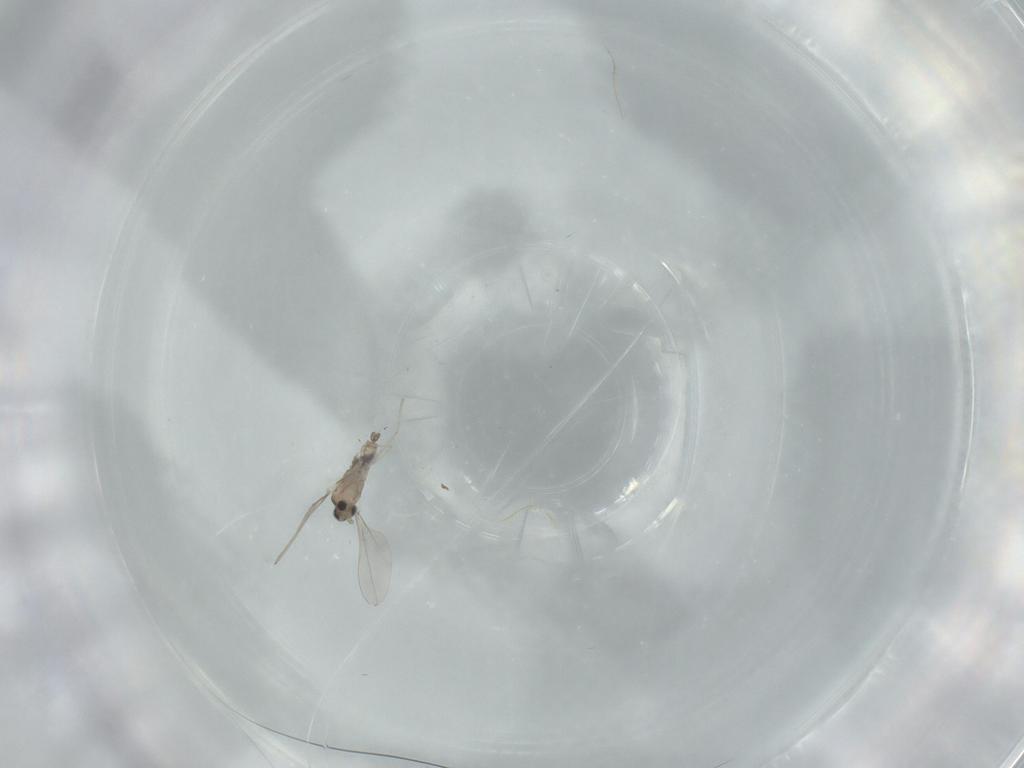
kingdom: Animalia
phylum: Arthropoda
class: Insecta
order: Diptera
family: Cecidomyiidae
